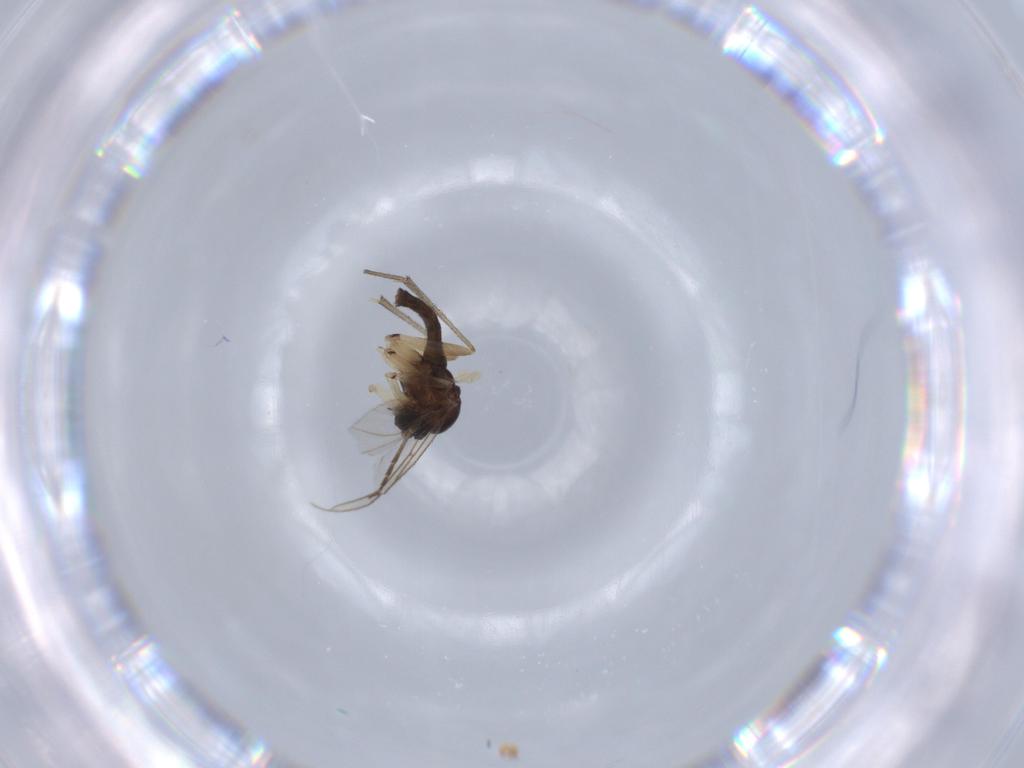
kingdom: Animalia
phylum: Arthropoda
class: Insecta
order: Diptera
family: Sciaridae
